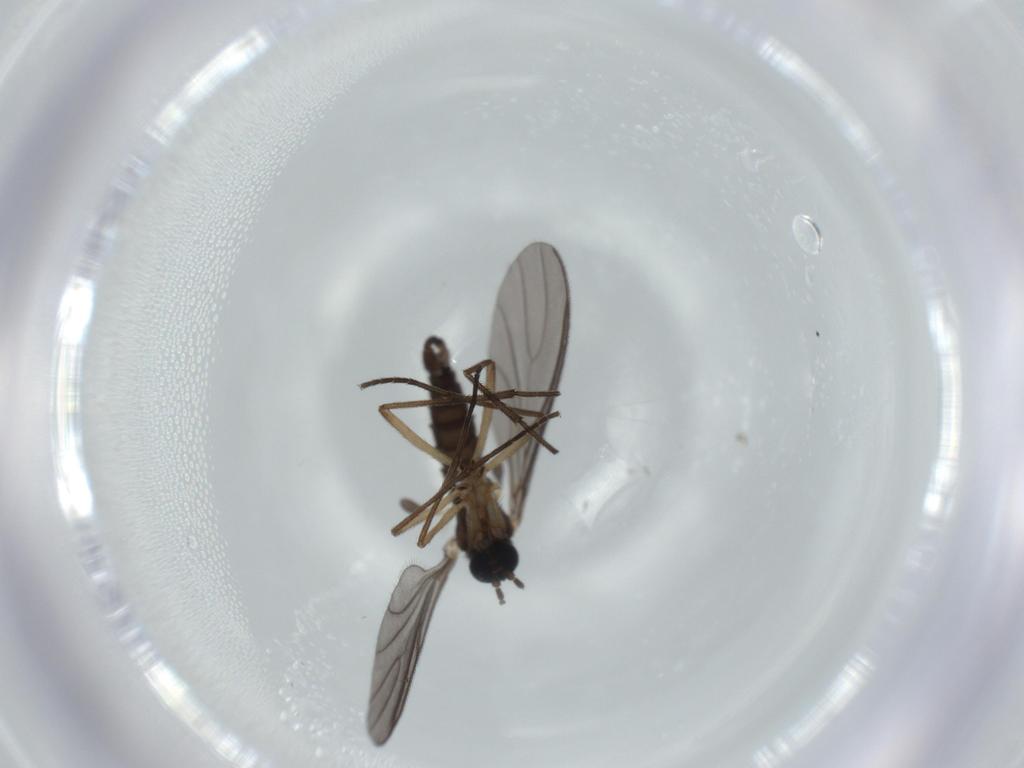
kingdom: Animalia
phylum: Arthropoda
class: Insecta
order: Diptera
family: Sciaridae
